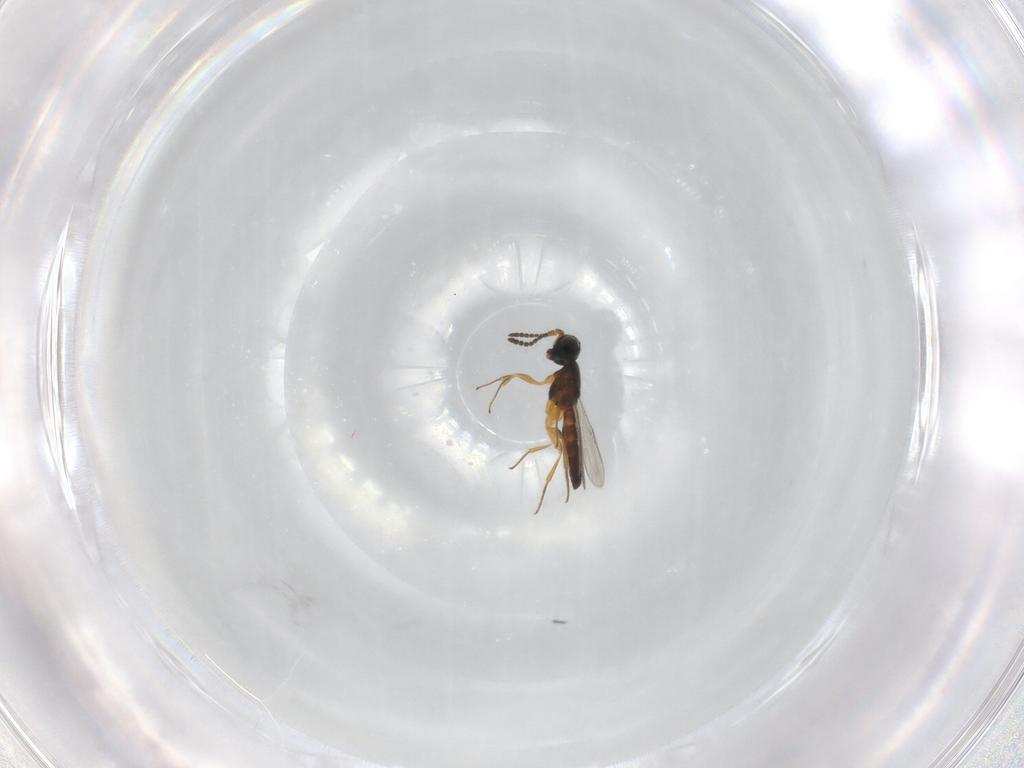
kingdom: Animalia
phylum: Arthropoda
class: Insecta
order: Hymenoptera
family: Scelionidae
